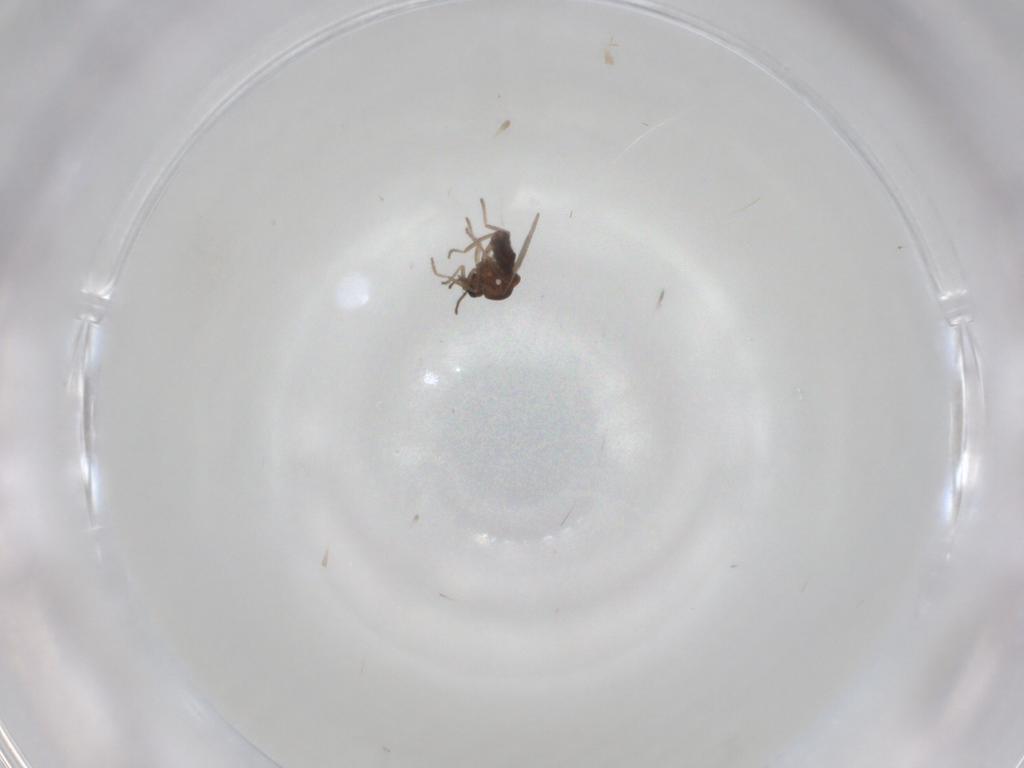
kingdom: Animalia
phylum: Arthropoda
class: Insecta
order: Diptera
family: Ceratopogonidae
